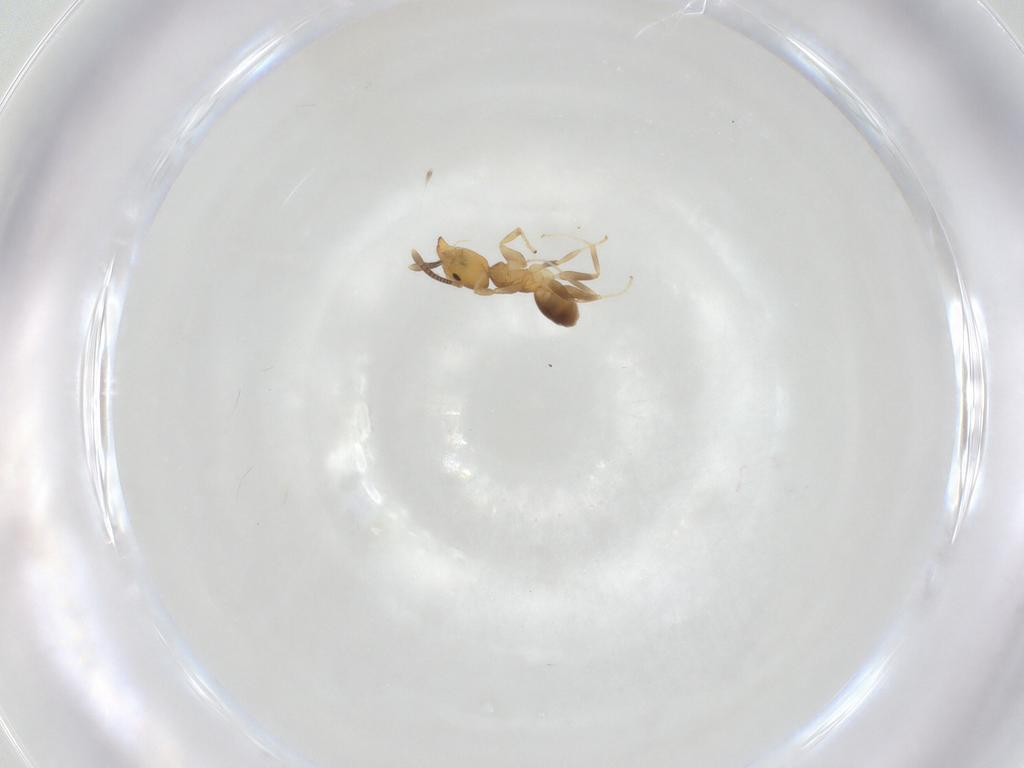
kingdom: Animalia
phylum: Arthropoda
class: Insecta
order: Hymenoptera
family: Formicidae
